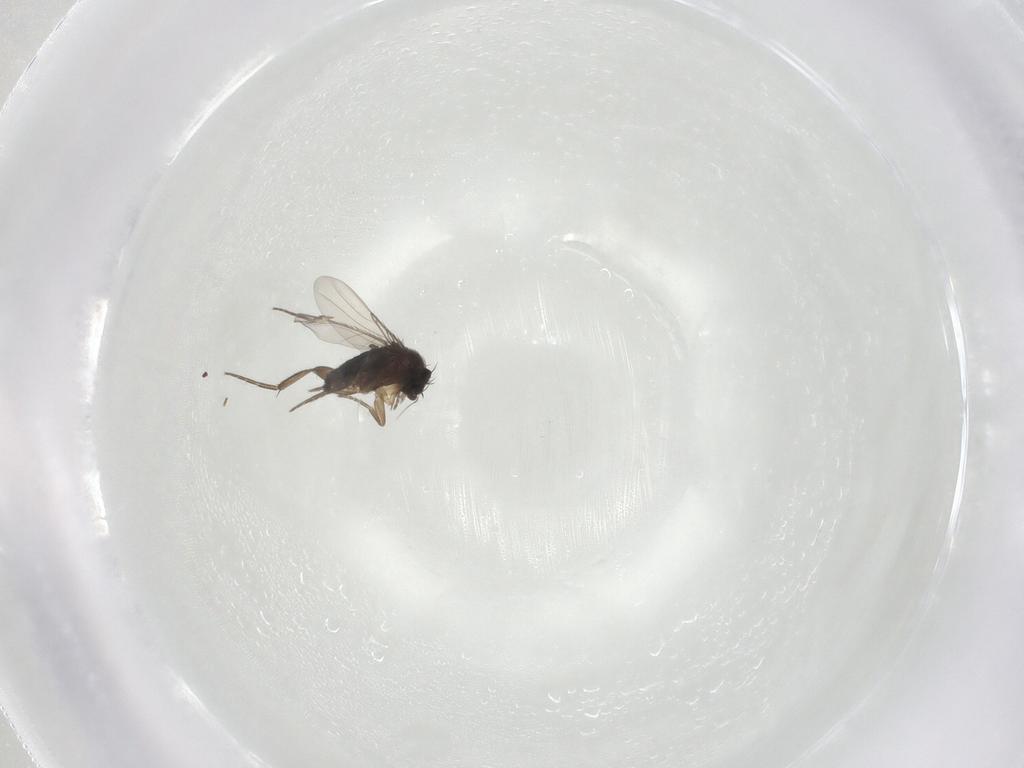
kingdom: Animalia
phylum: Arthropoda
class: Insecta
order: Diptera
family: Phoridae
